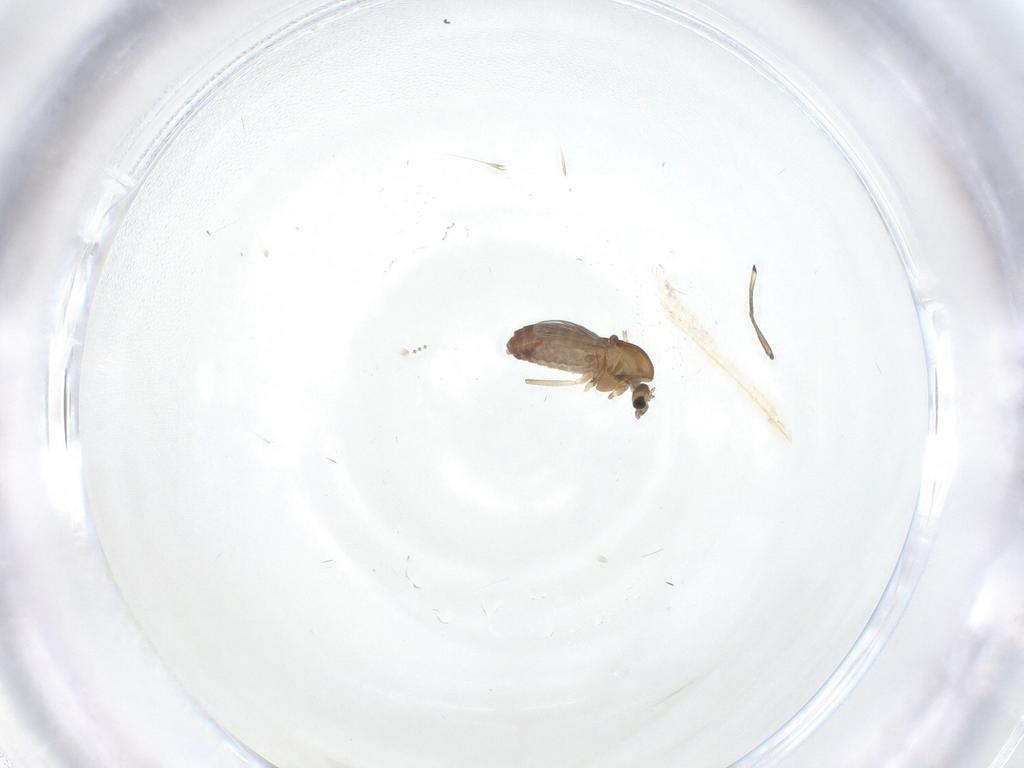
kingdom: Animalia
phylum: Arthropoda
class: Insecta
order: Diptera
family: Chironomidae
